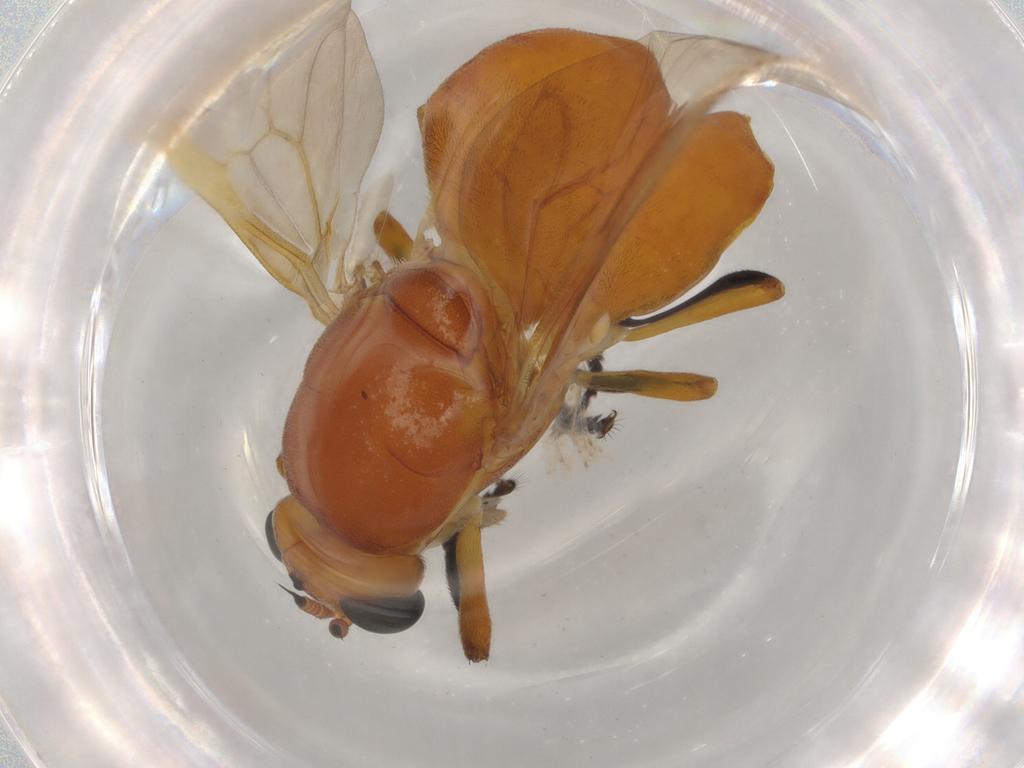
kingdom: Animalia
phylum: Arthropoda
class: Insecta
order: Diptera
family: Stratiomyidae
